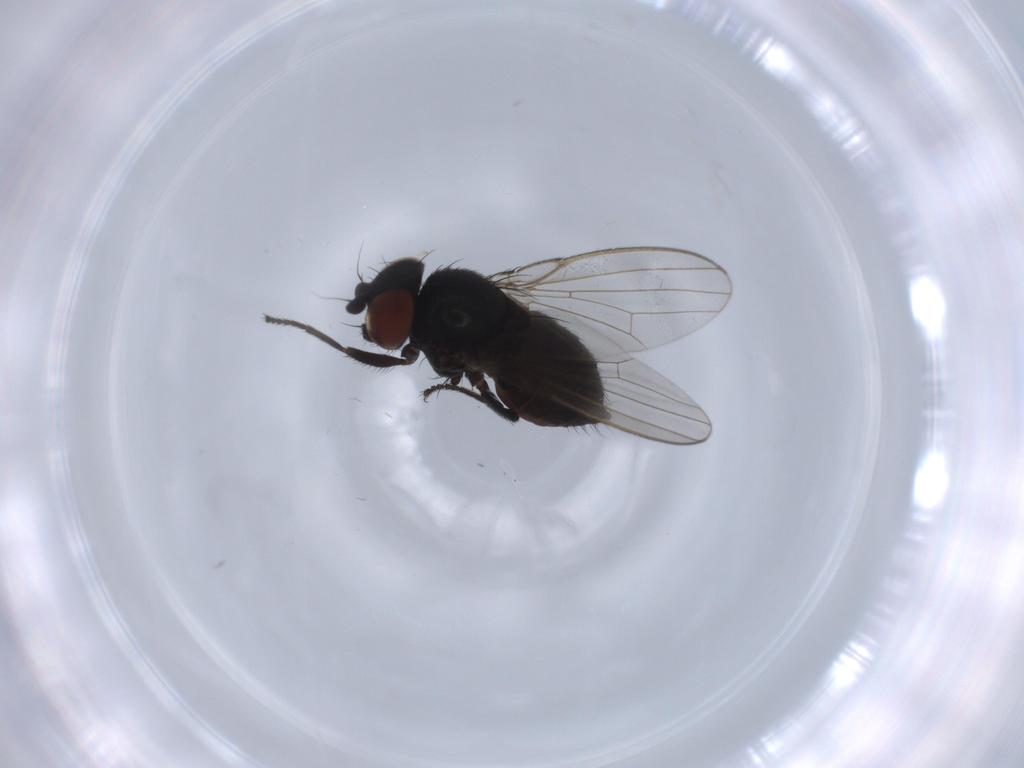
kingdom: Animalia
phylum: Arthropoda
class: Insecta
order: Diptera
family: Milichiidae
